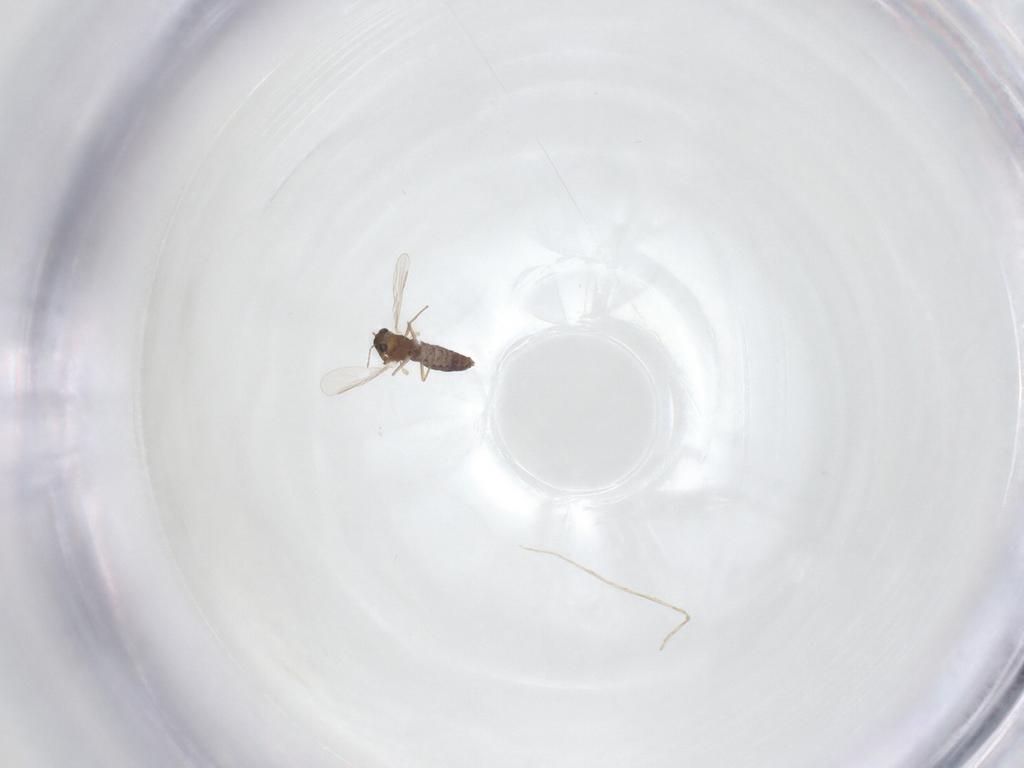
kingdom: Animalia
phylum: Arthropoda
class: Insecta
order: Diptera
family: Chironomidae
